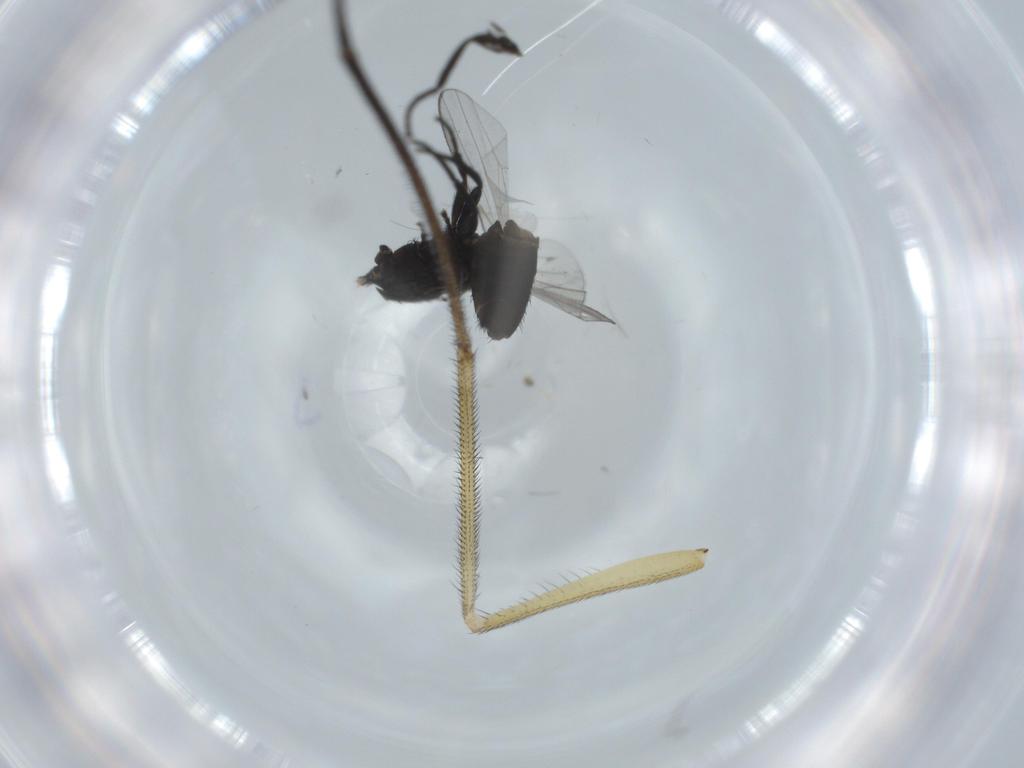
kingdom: Animalia
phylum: Arthropoda
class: Insecta
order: Diptera
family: Dolichopodidae
